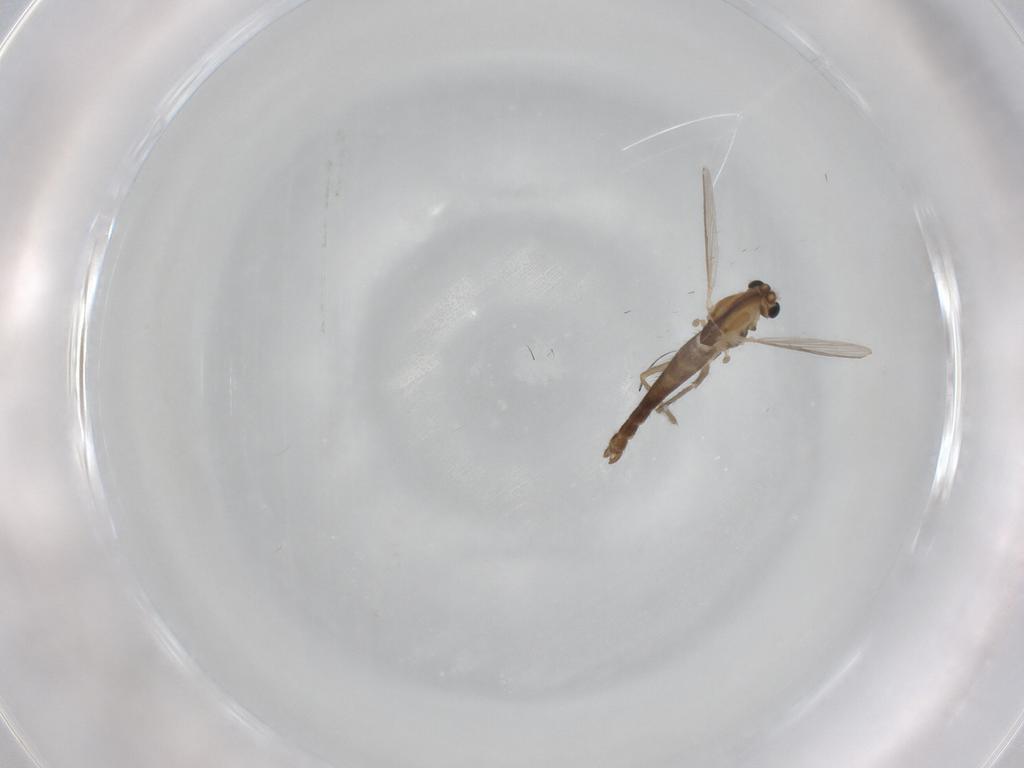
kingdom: Animalia
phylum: Arthropoda
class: Insecta
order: Diptera
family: Chironomidae
